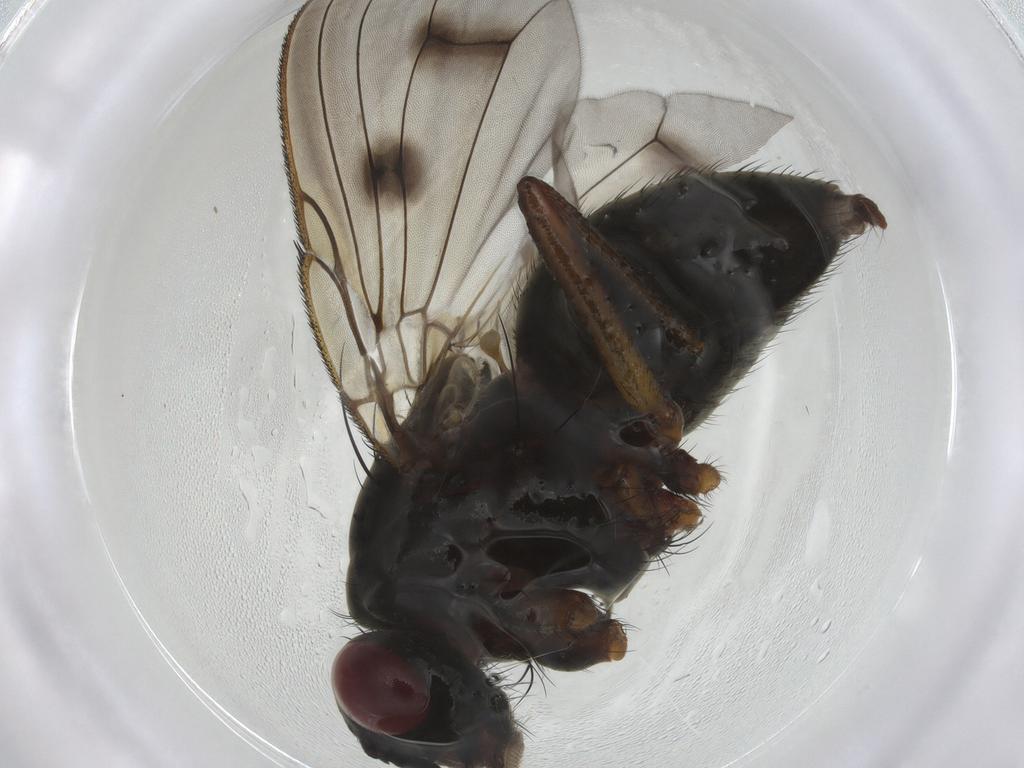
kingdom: Animalia
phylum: Arthropoda
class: Insecta
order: Diptera
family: Muscidae
